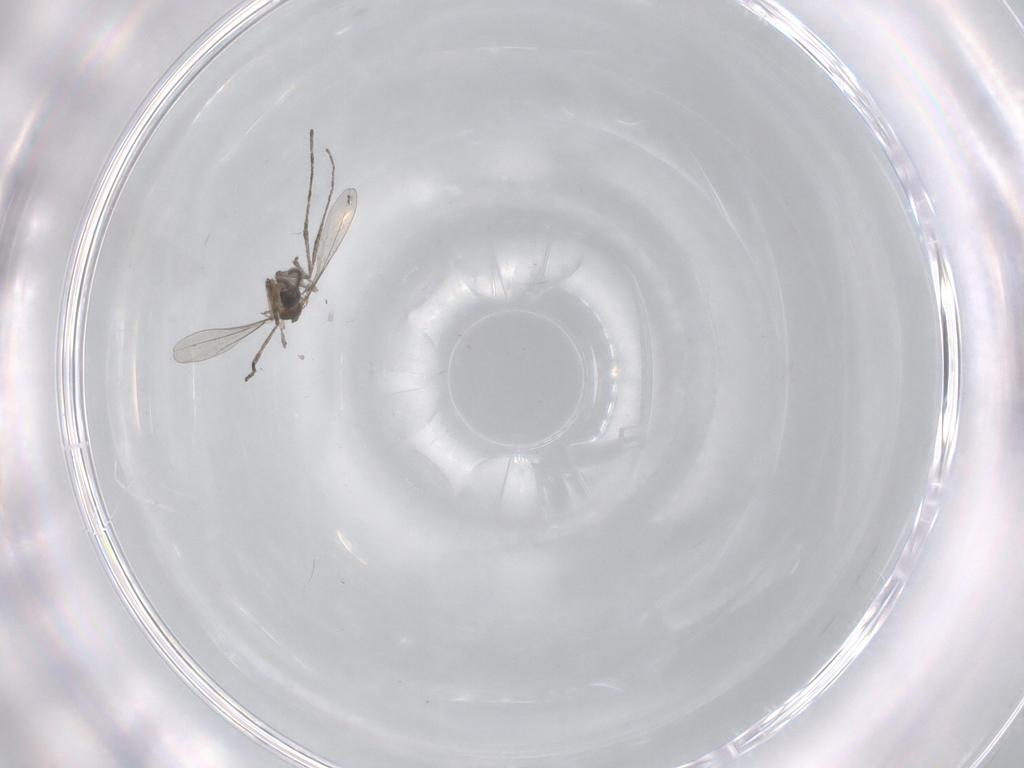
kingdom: Animalia
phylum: Arthropoda
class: Insecta
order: Diptera
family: Cecidomyiidae
